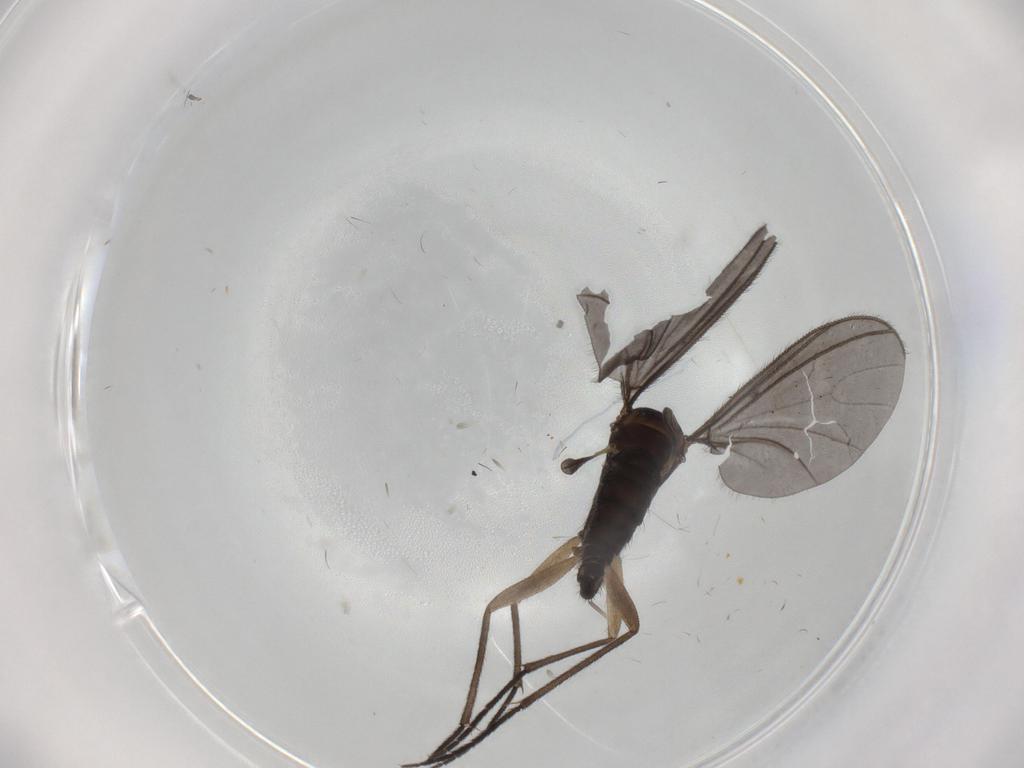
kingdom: Animalia
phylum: Arthropoda
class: Insecta
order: Diptera
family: Sciaridae
